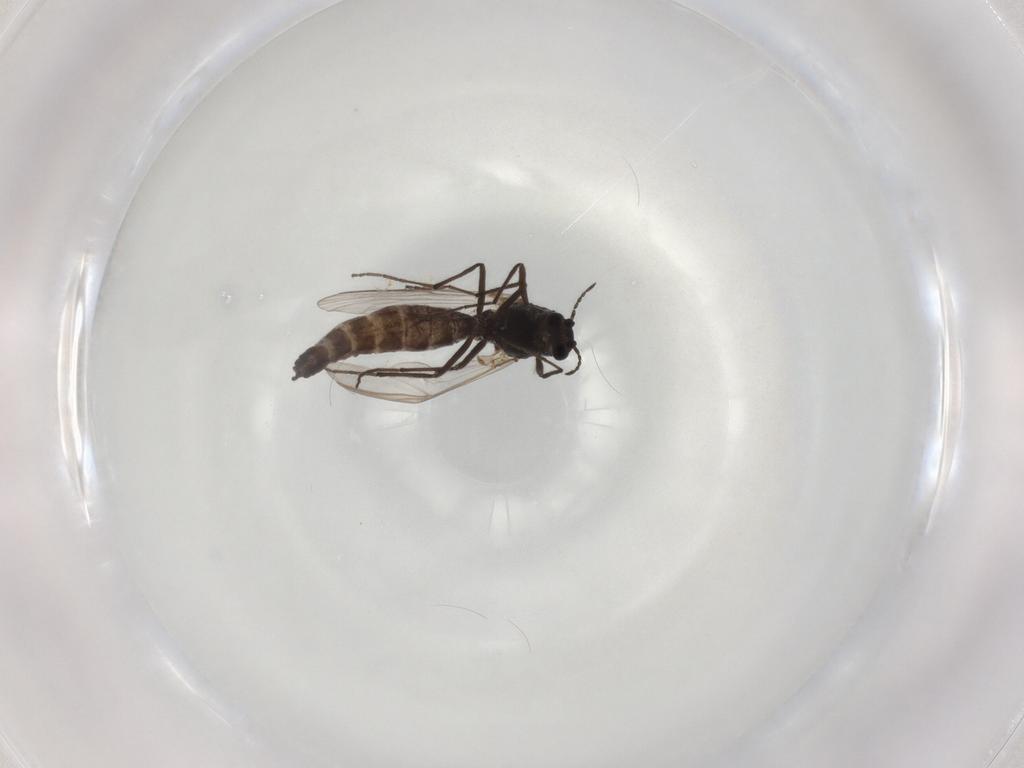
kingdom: Animalia
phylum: Arthropoda
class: Insecta
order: Diptera
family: Chironomidae
